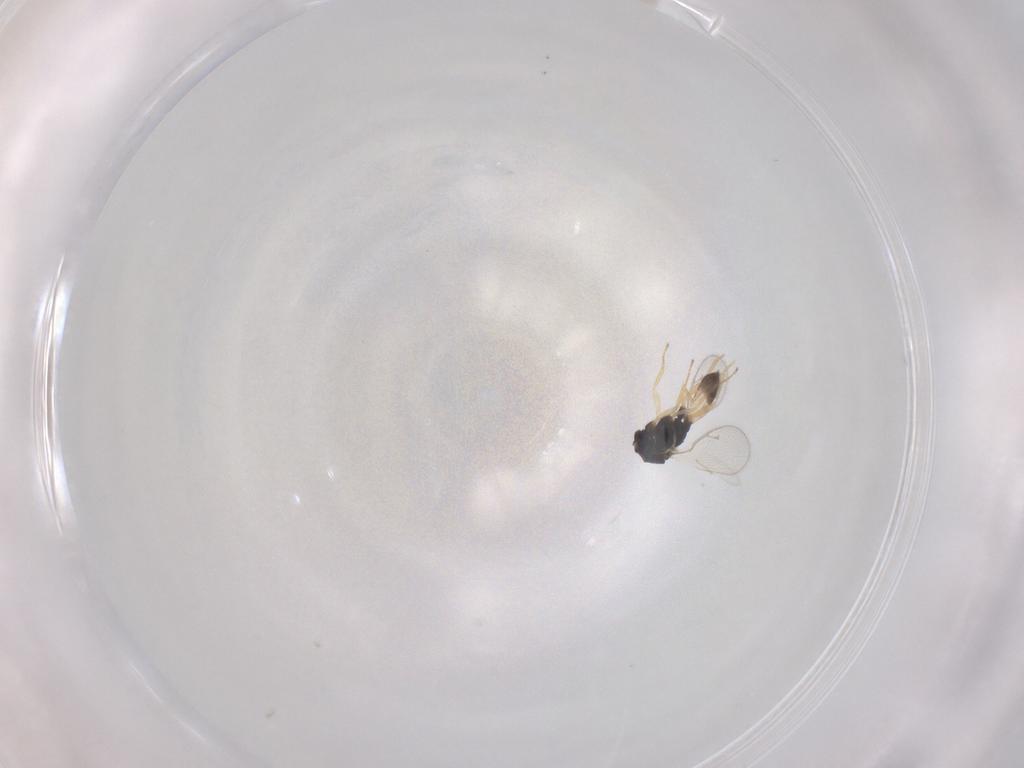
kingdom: Animalia
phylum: Arthropoda
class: Insecta
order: Hymenoptera
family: Pteromalidae
